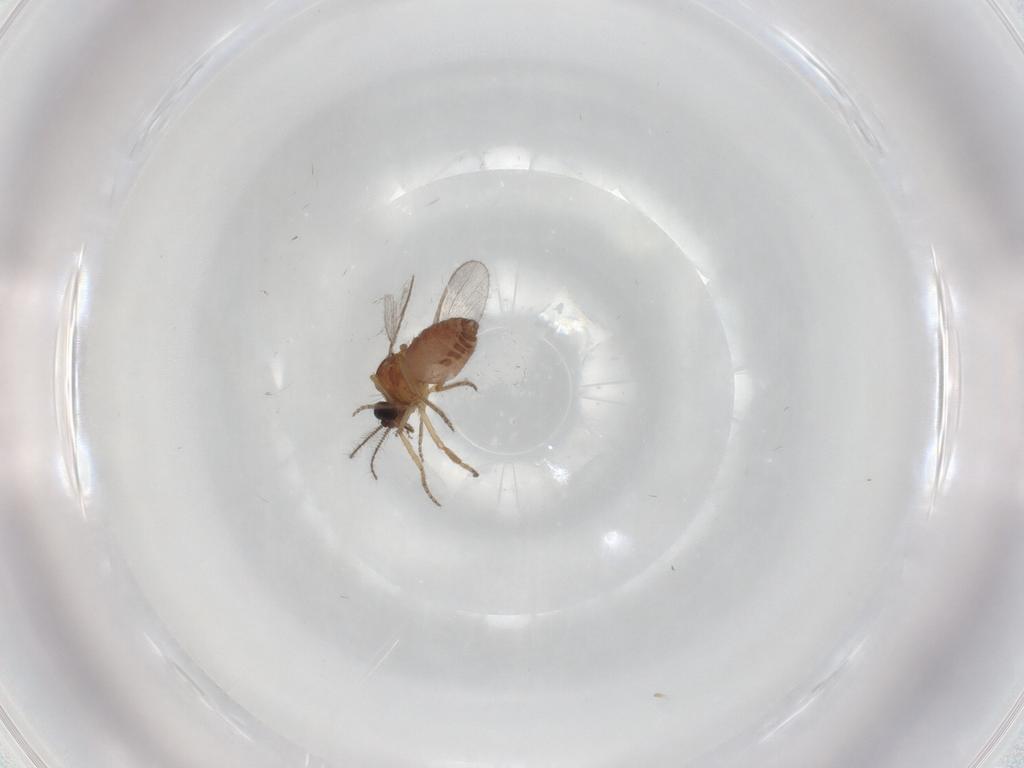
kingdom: Animalia
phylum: Arthropoda
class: Insecta
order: Diptera
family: Ceratopogonidae
